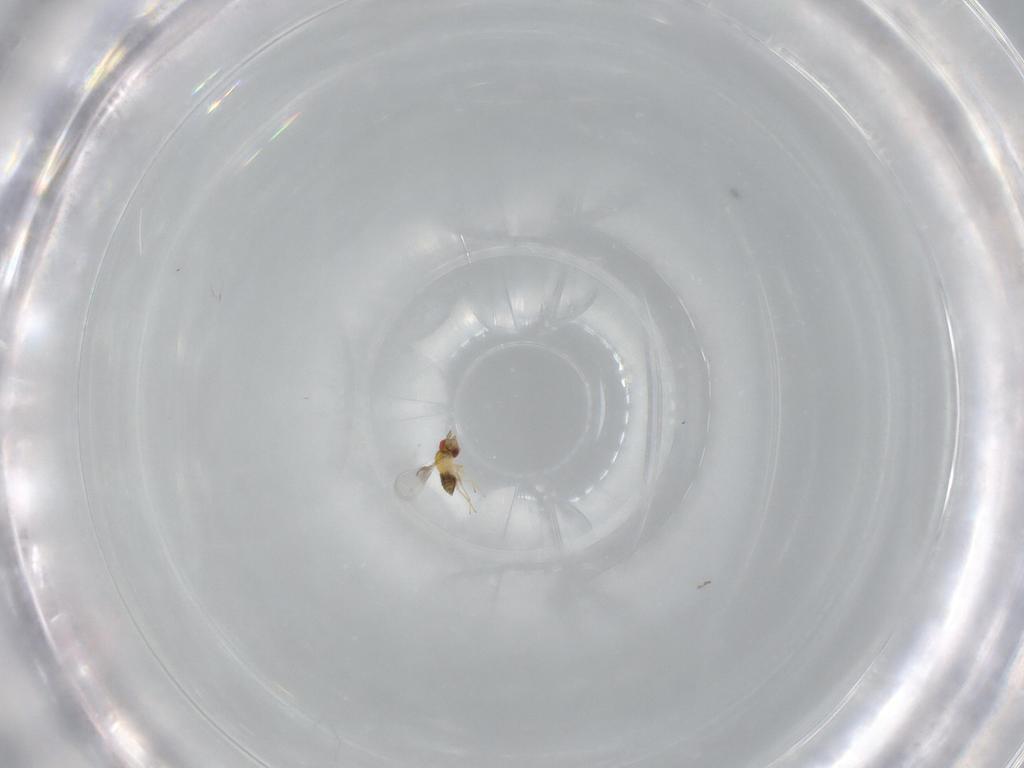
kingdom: Animalia
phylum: Arthropoda
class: Insecta
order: Hymenoptera
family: Trichogrammatidae
